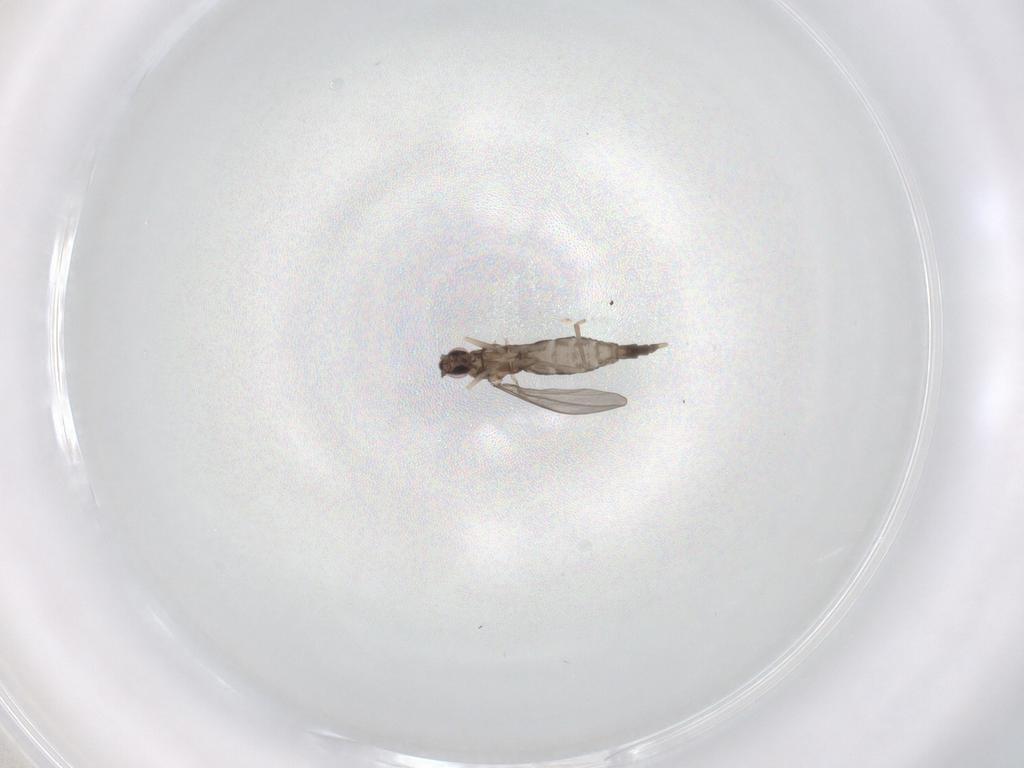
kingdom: Animalia
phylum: Arthropoda
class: Insecta
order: Diptera
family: Cecidomyiidae
